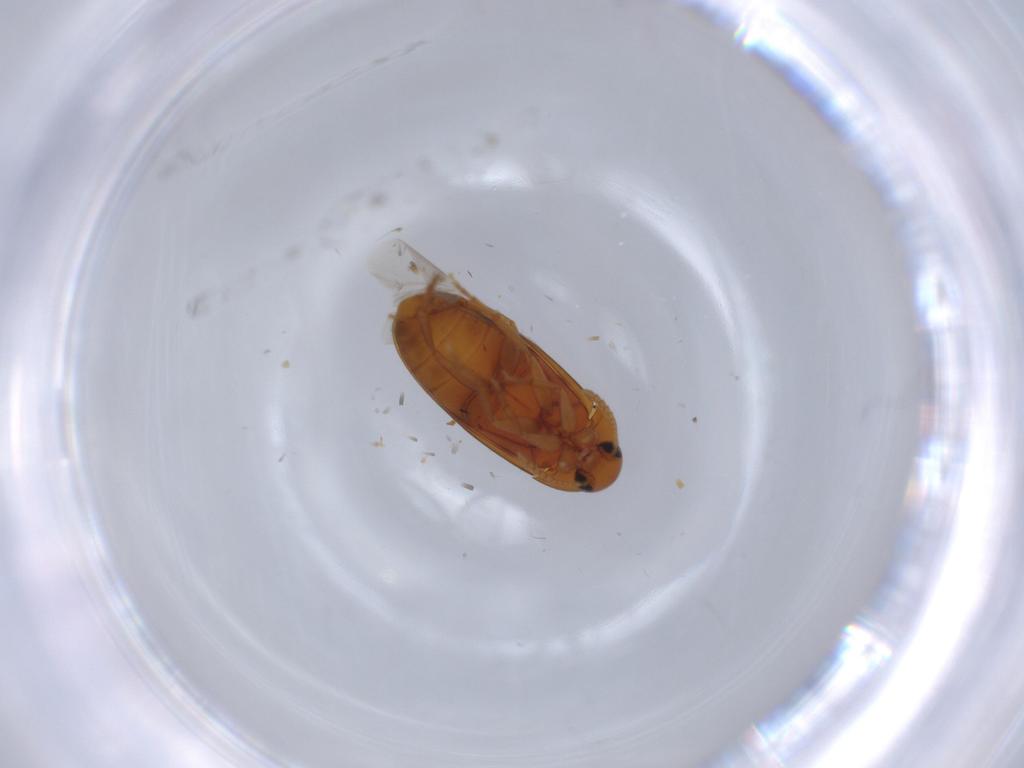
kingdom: Animalia
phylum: Arthropoda
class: Insecta
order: Coleoptera
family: Scraptiidae
